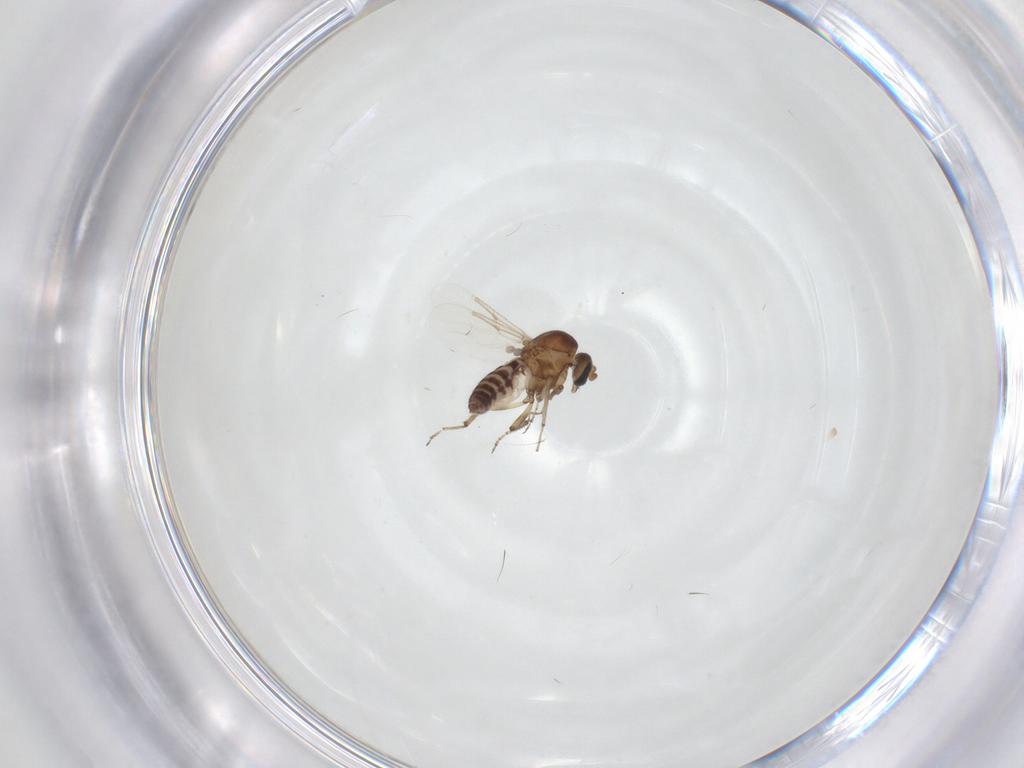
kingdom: Animalia
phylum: Arthropoda
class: Insecta
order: Diptera
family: Ceratopogonidae
